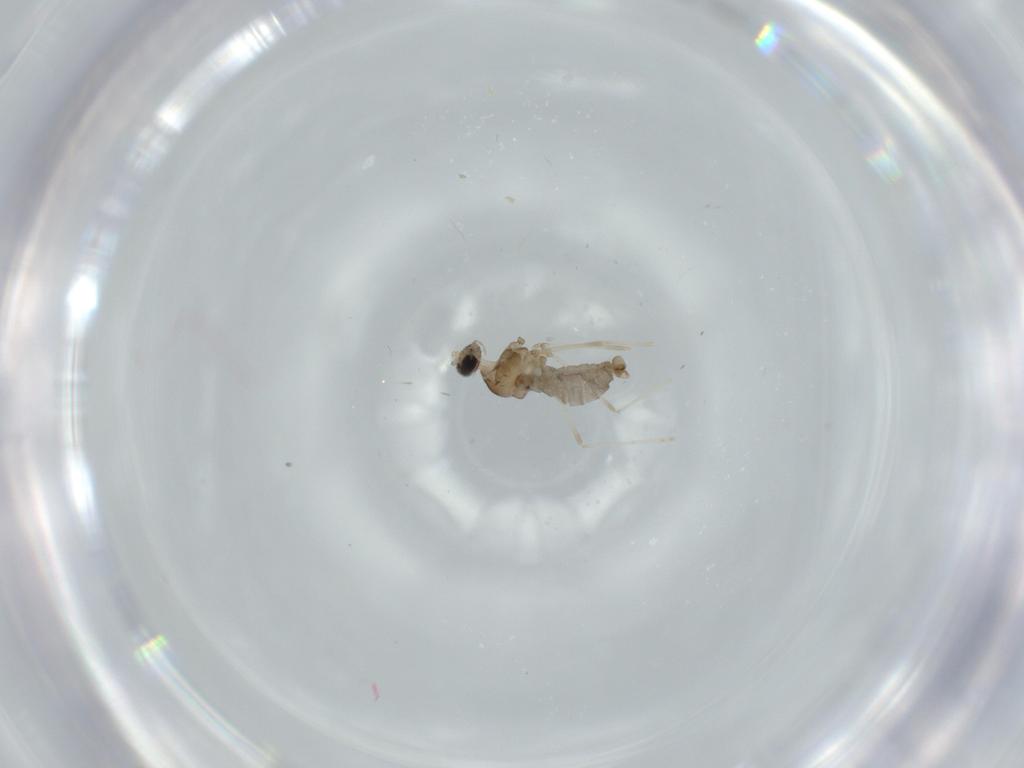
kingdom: Animalia
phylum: Arthropoda
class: Insecta
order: Diptera
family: Cecidomyiidae
